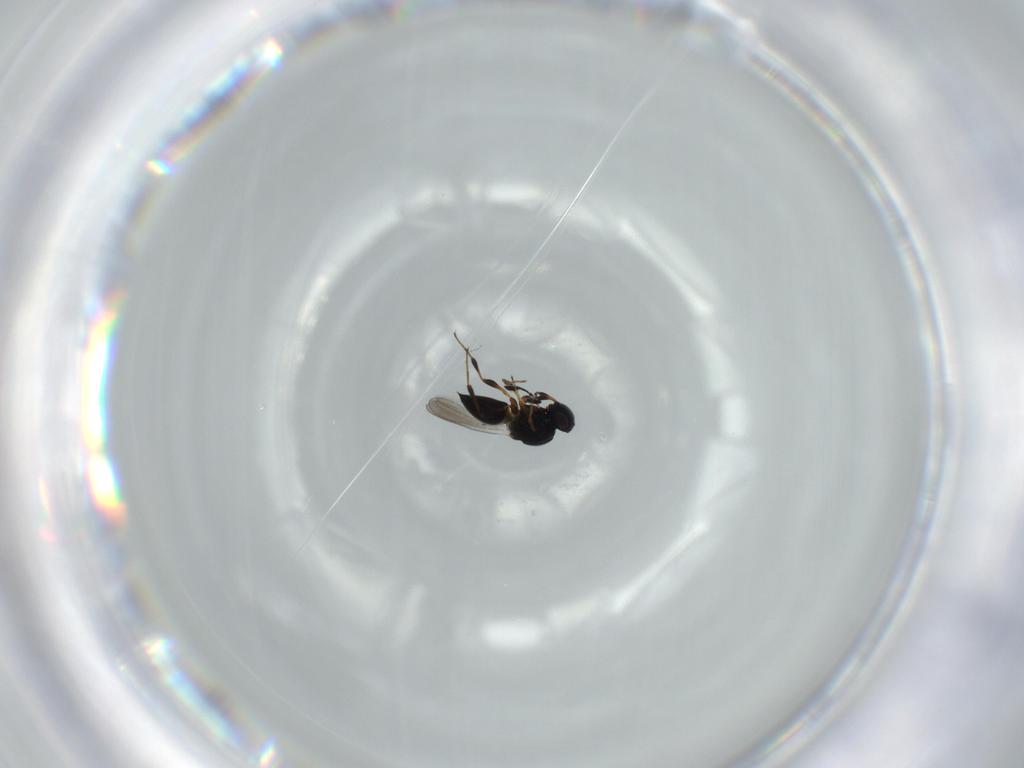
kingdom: Animalia
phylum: Arthropoda
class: Insecta
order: Hymenoptera
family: Platygastridae
